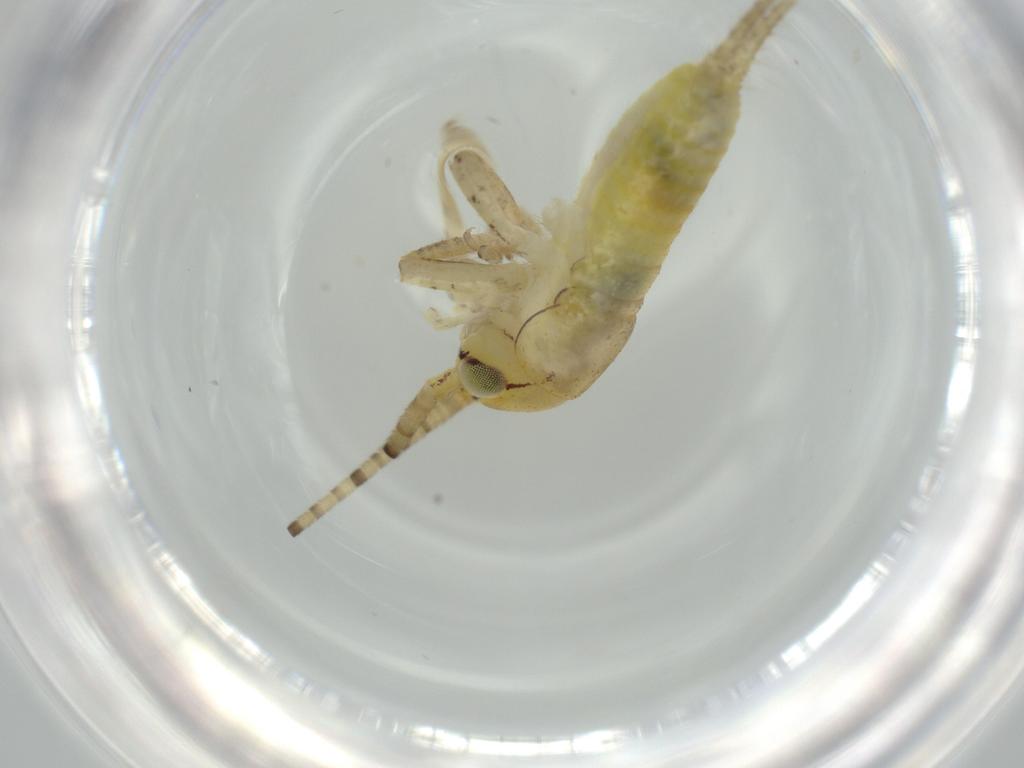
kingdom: Animalia
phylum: Arthropoda
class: Insecta
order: Orthoptera
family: Gryllidae
